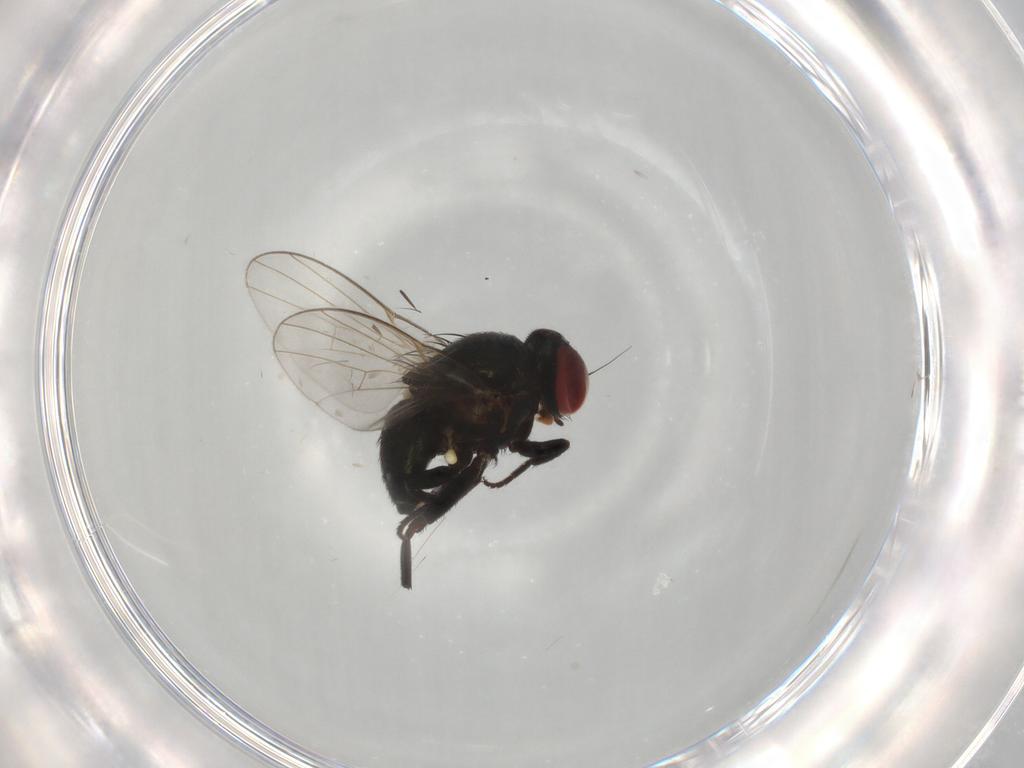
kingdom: Animalia
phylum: Arthropoda
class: Insecta
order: Diptera
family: Agromyzidae
